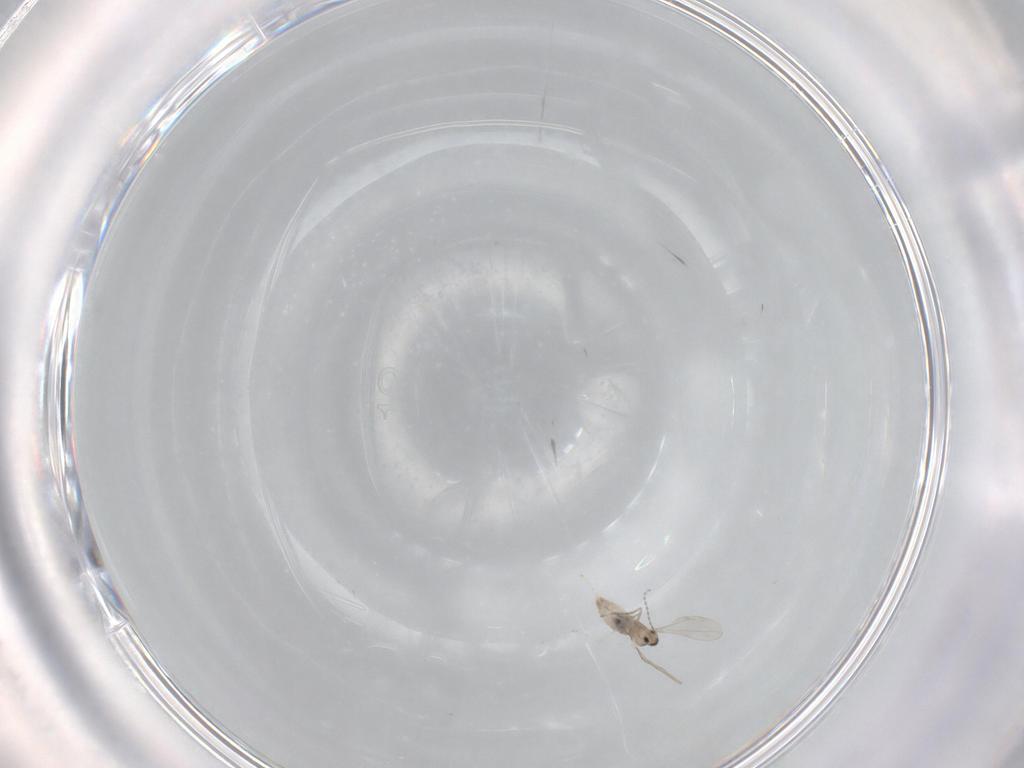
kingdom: Animalia
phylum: Arthropoda
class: Insecta
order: Diptera
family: Cecidomyiidae
